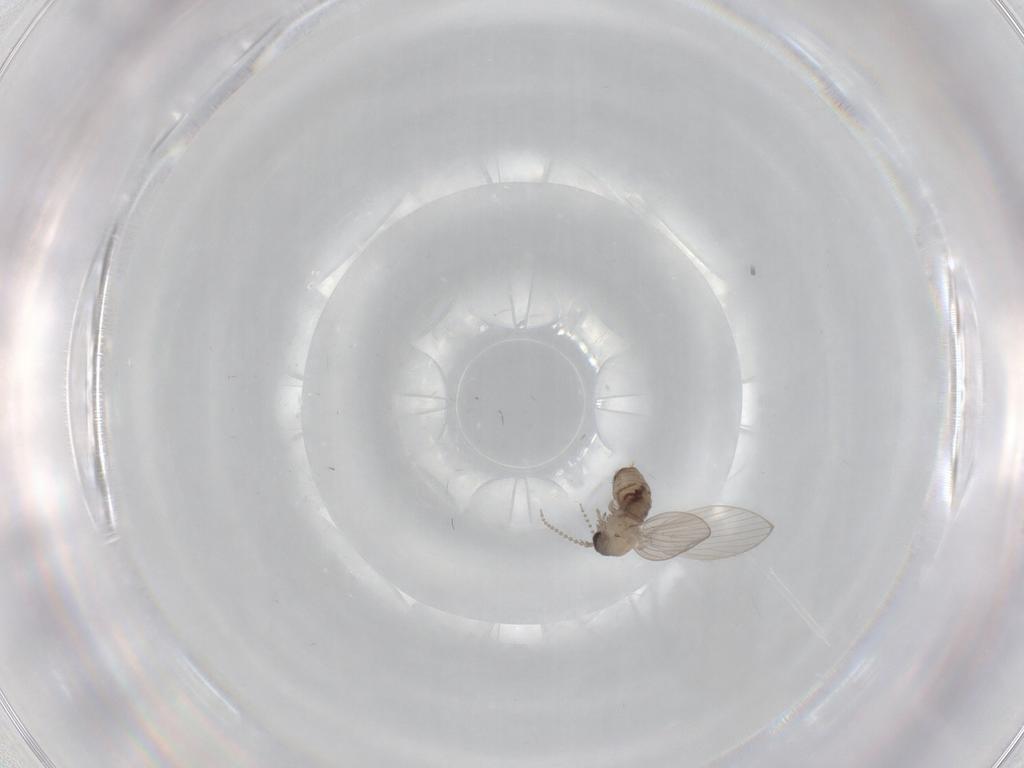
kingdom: Animalia
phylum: Arthropoda
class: Insecta
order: Diptera
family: Psychodidae
